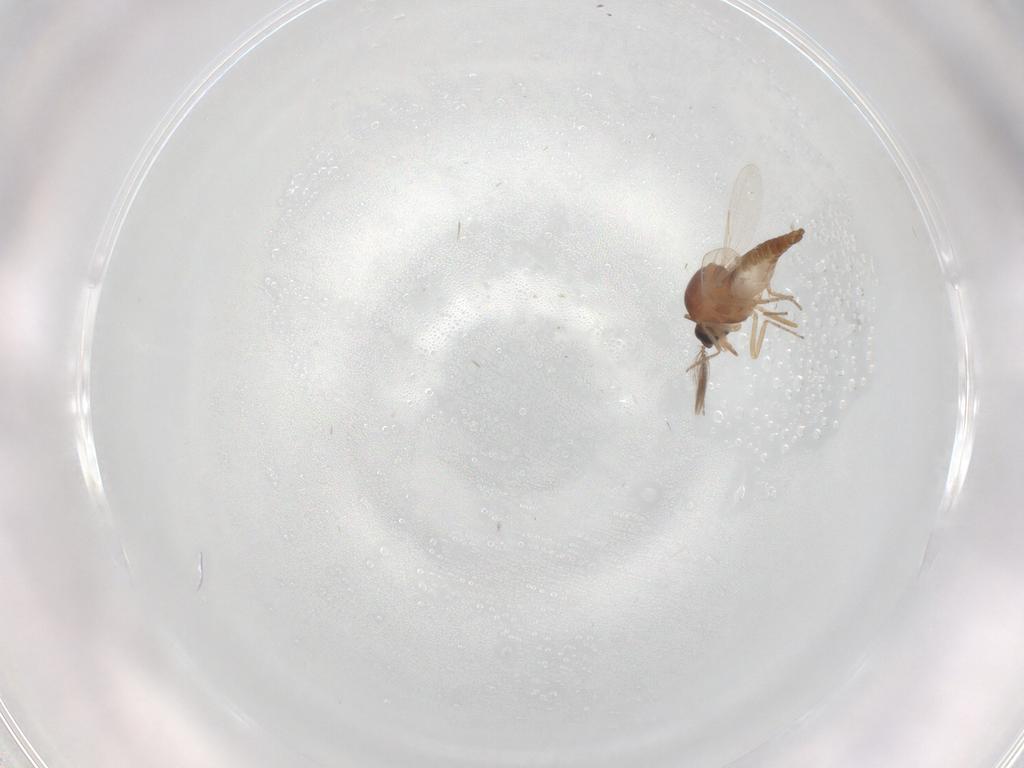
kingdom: Animalia
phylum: Arthropoda
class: Insecta
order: Diptera
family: Ceratopogonidae
